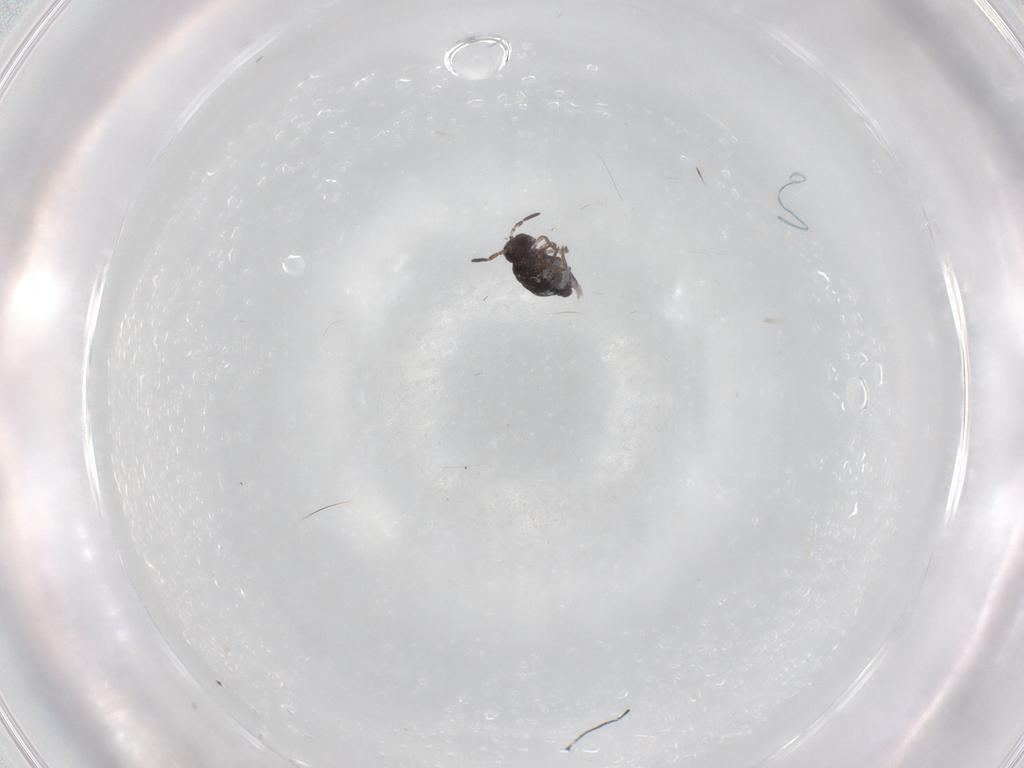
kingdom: Animalia
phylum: Arthropoda
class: Collembola
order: Symphypleona
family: Katiannidae
